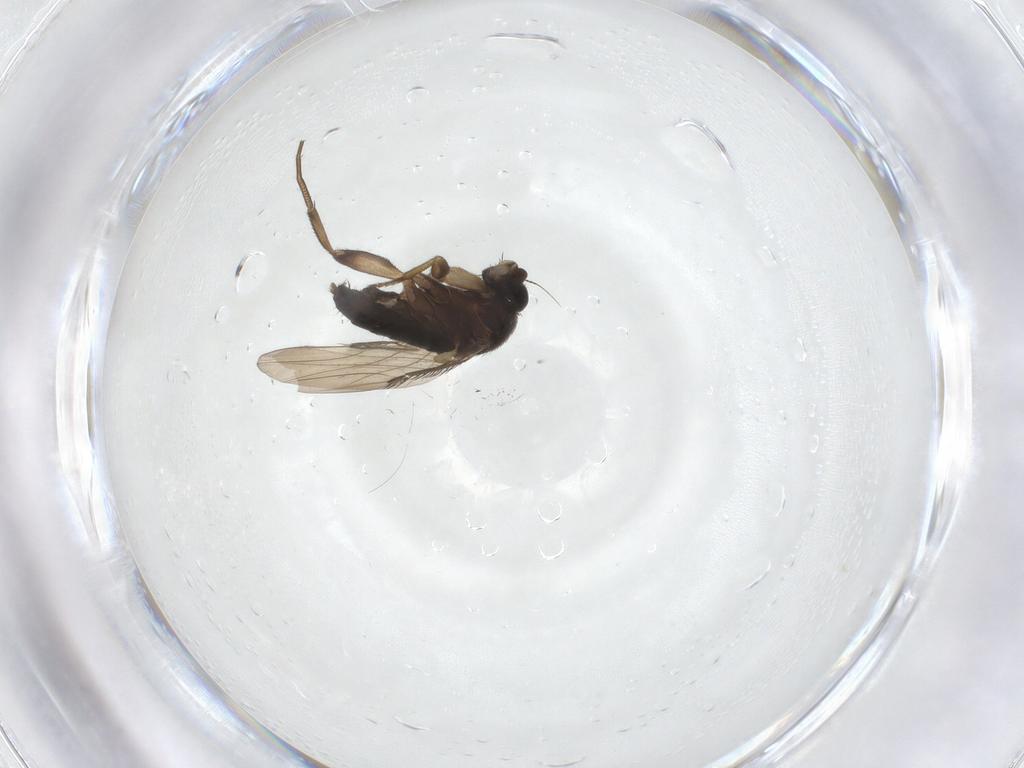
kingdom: Animalia
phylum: Arthropoda
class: Insecta
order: Diptera
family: Phoridae
